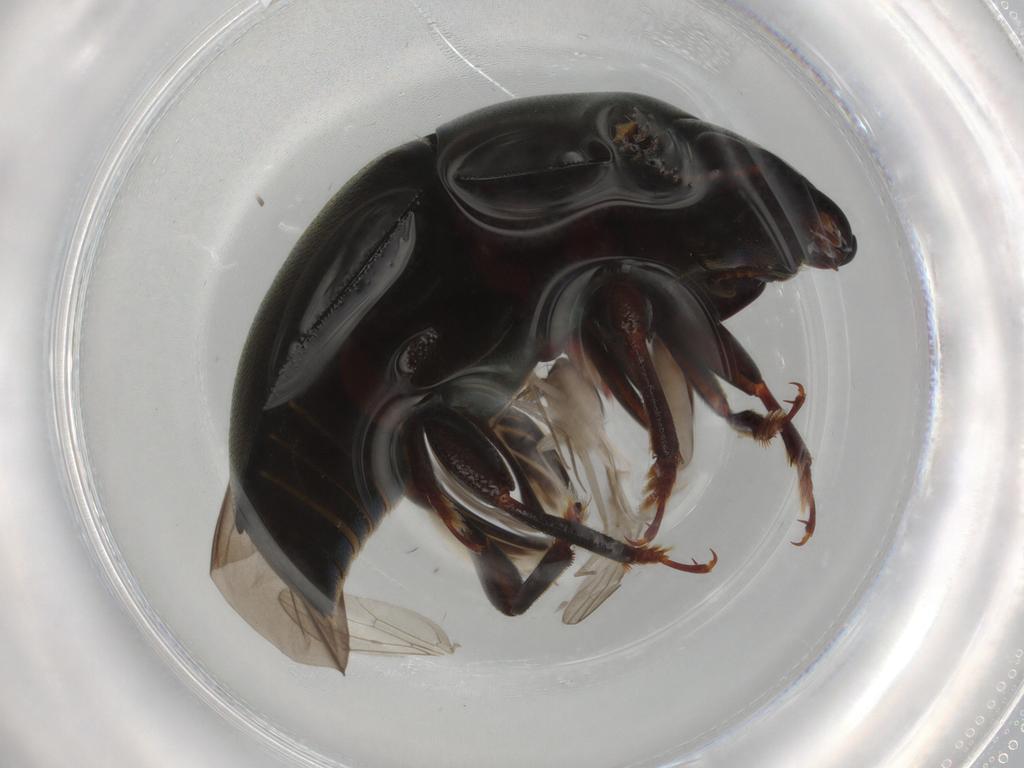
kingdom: Animalia
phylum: Arthropoda
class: Insecta
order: Coleoptera
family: Nitidulidae
